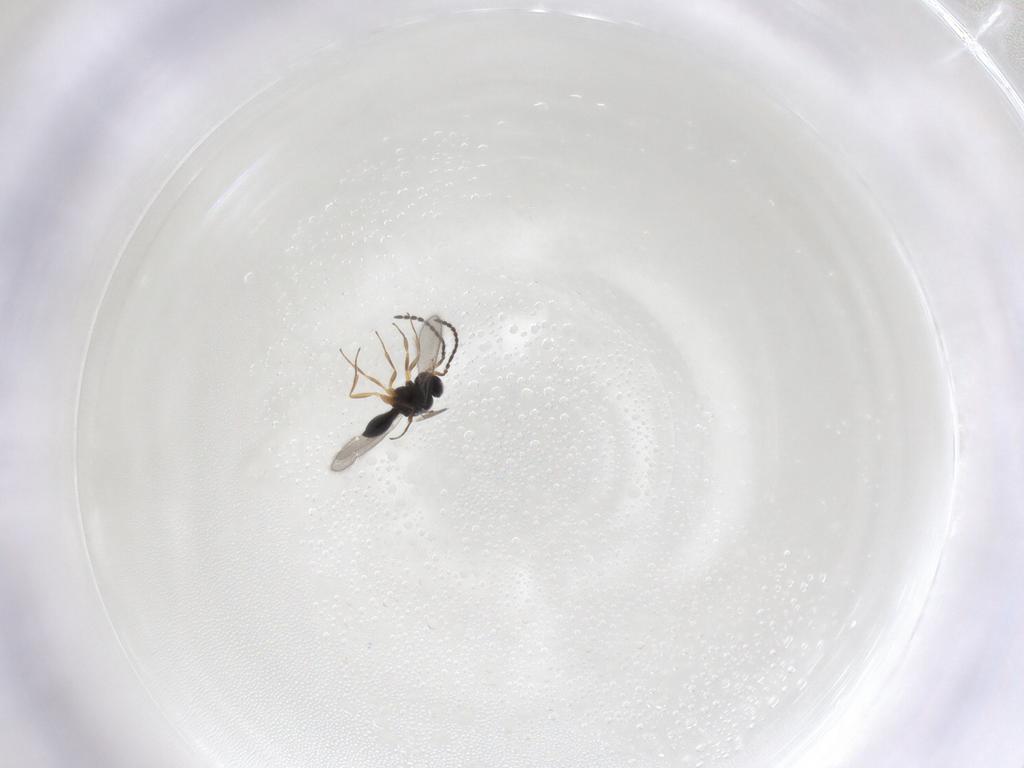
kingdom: Animalia
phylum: Arthropoda
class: Insecta
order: Hymenoptera
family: Scelionidae
